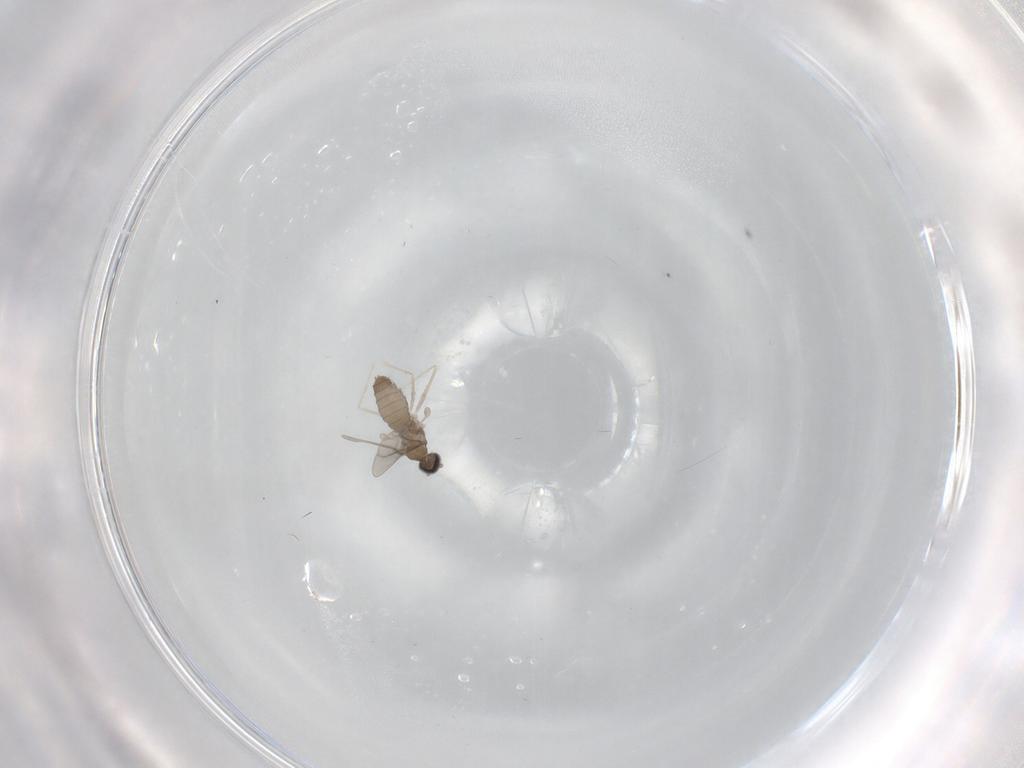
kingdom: Animalia
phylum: Arthropoda
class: Insecta
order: Diptera
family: Cecidomyiidae
